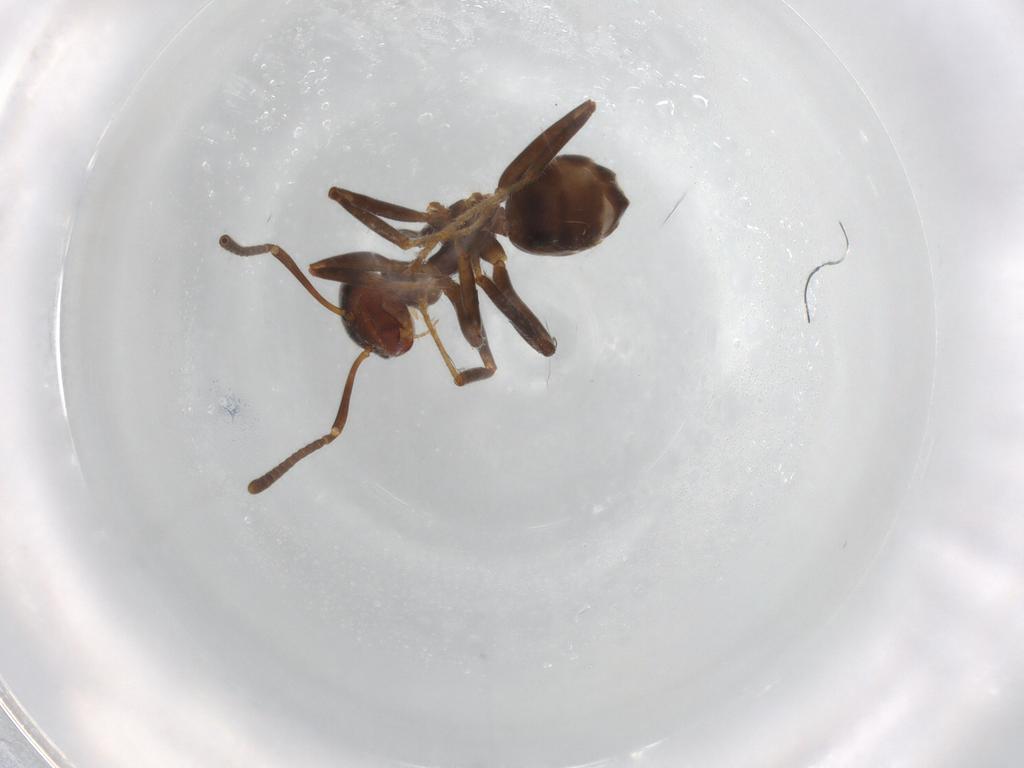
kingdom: Animalia
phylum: Arthropoda
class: Insecta
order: Hymenoptera
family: Formicidae
